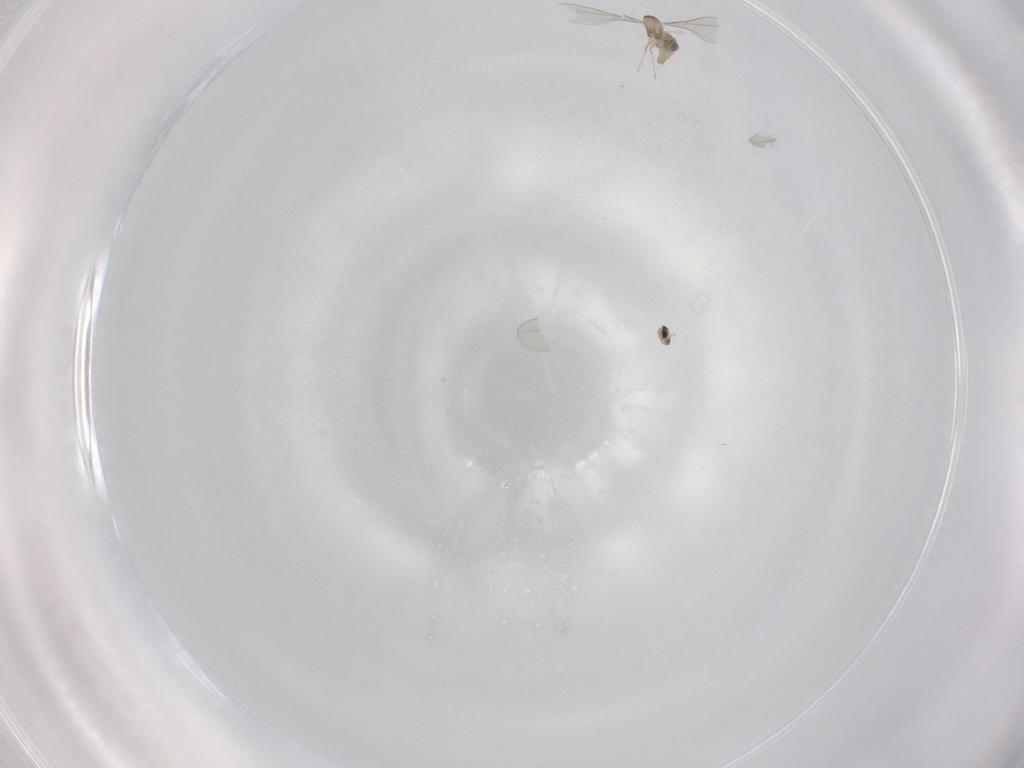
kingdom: Animalia
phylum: Arthropoda
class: Insecta
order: Diptera
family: Cecidomyiidae
